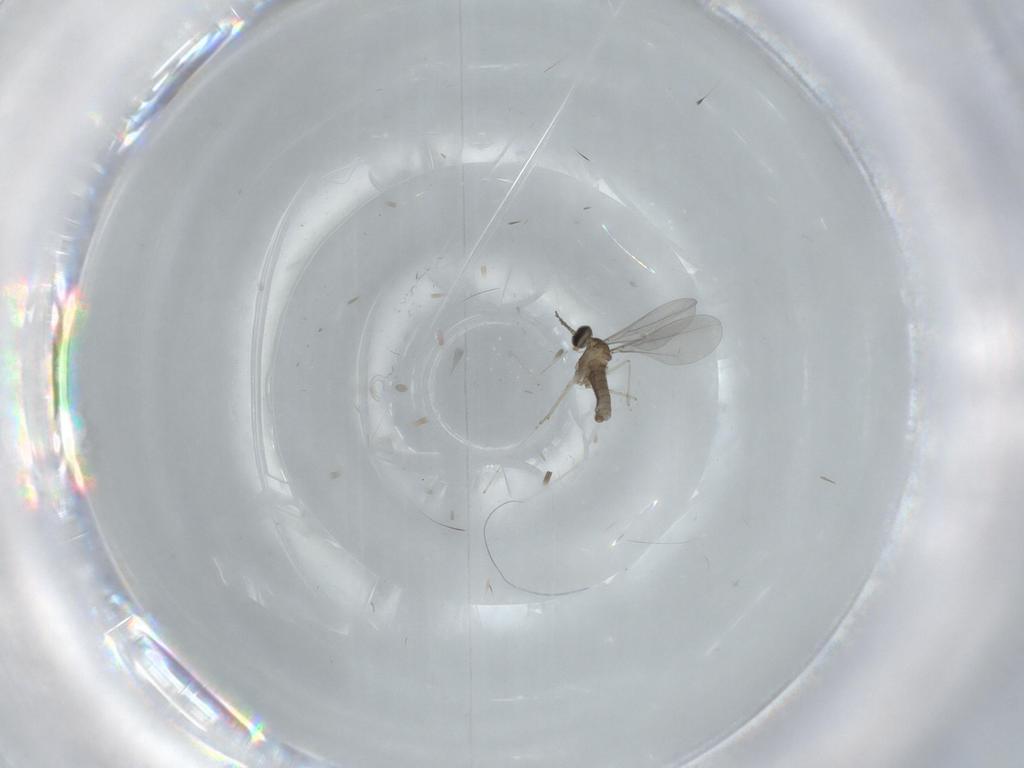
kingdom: Animalia
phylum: Arthropoda
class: Insecta
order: Diptera
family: Cecidomyiidae
